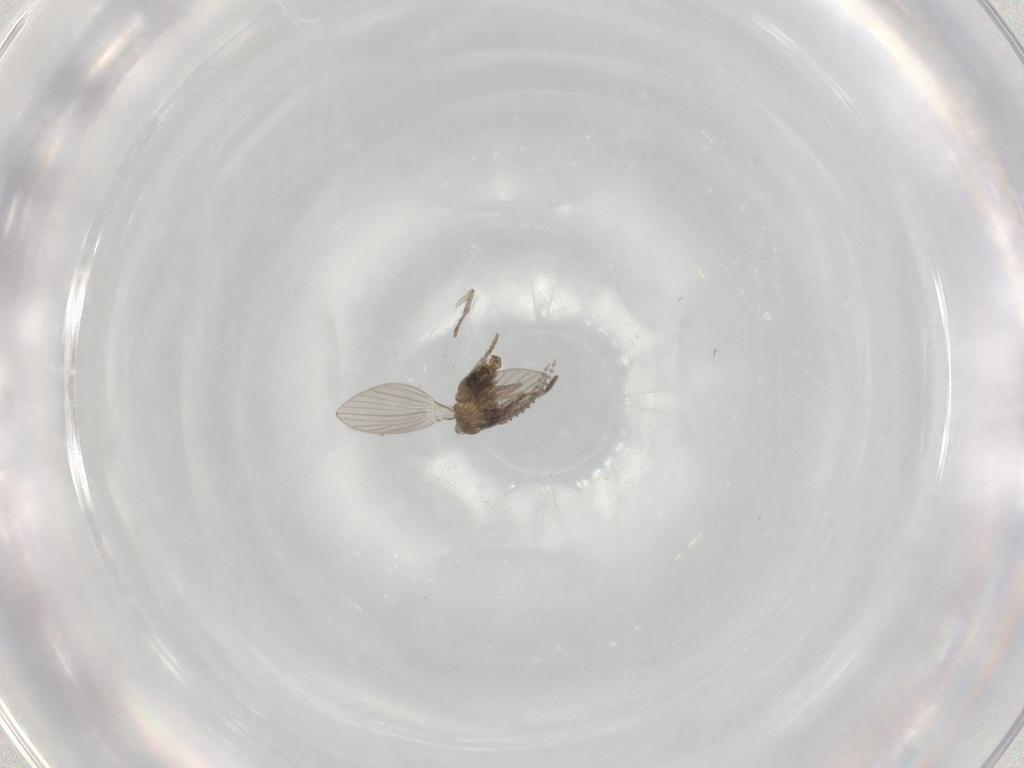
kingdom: Animalia
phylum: Arthropoda
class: Insecta
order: Diptera
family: Psychodidae
